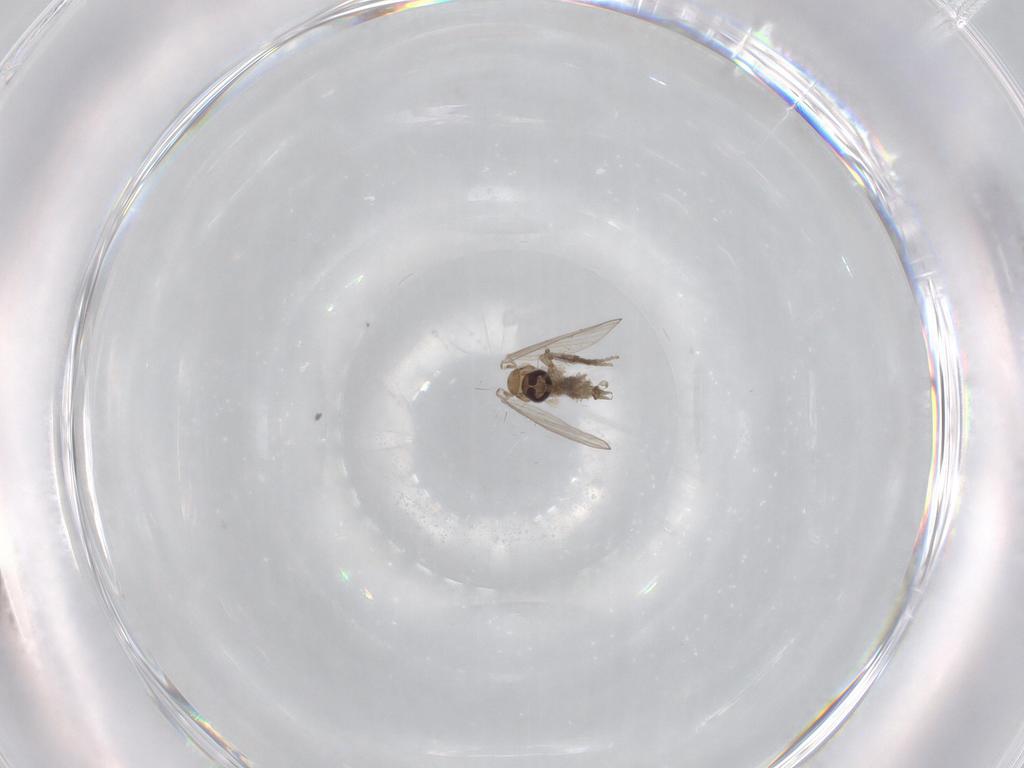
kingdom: Animalia
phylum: Arthropoda
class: Insecta
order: Diptera
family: Psychodidae
